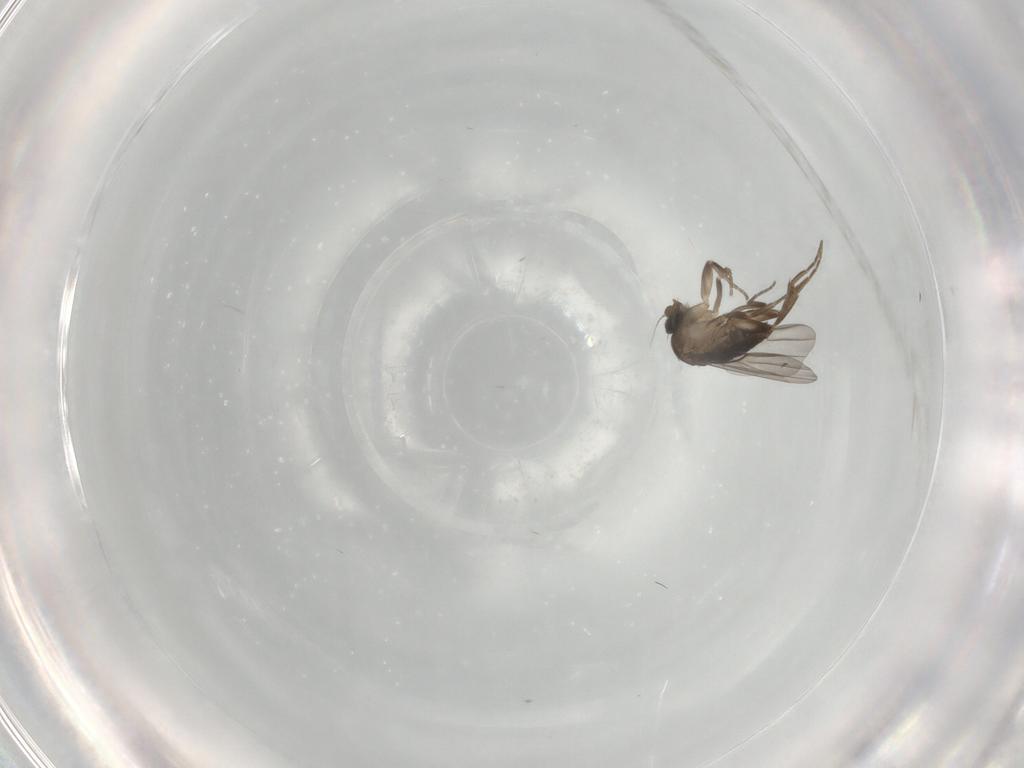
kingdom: Animalia
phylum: Arthropoda
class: Insecta
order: Diptera
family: Phoridae
